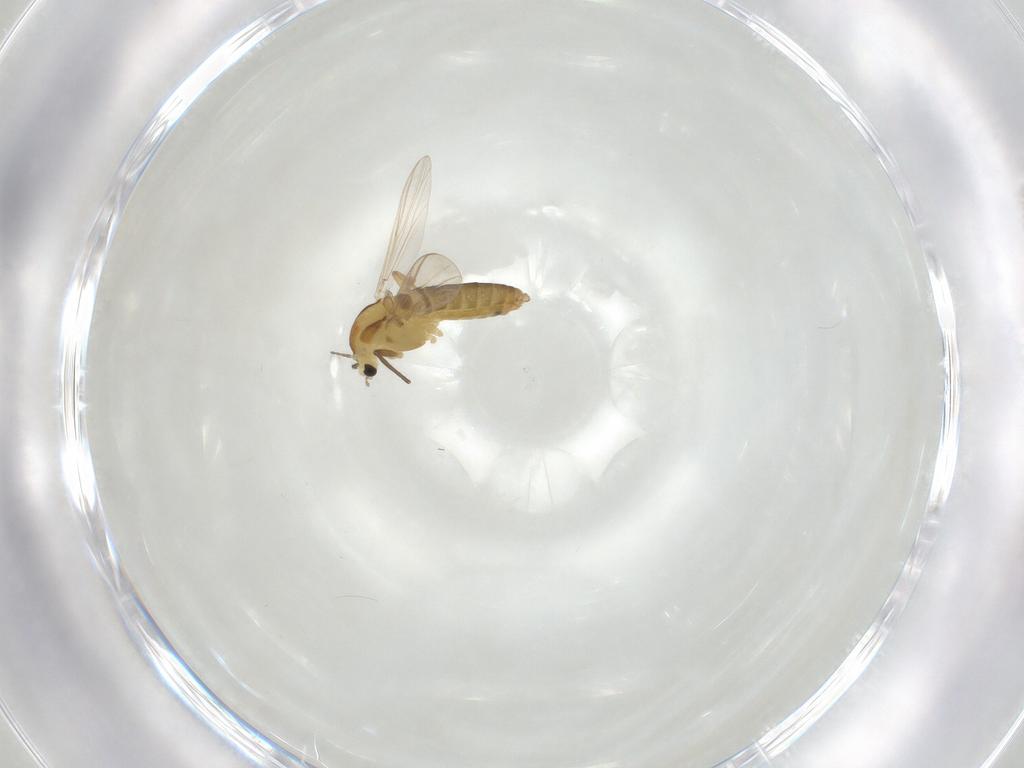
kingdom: Animalia
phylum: Arthropoda
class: Insecta
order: Diptera
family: Chironomidae
